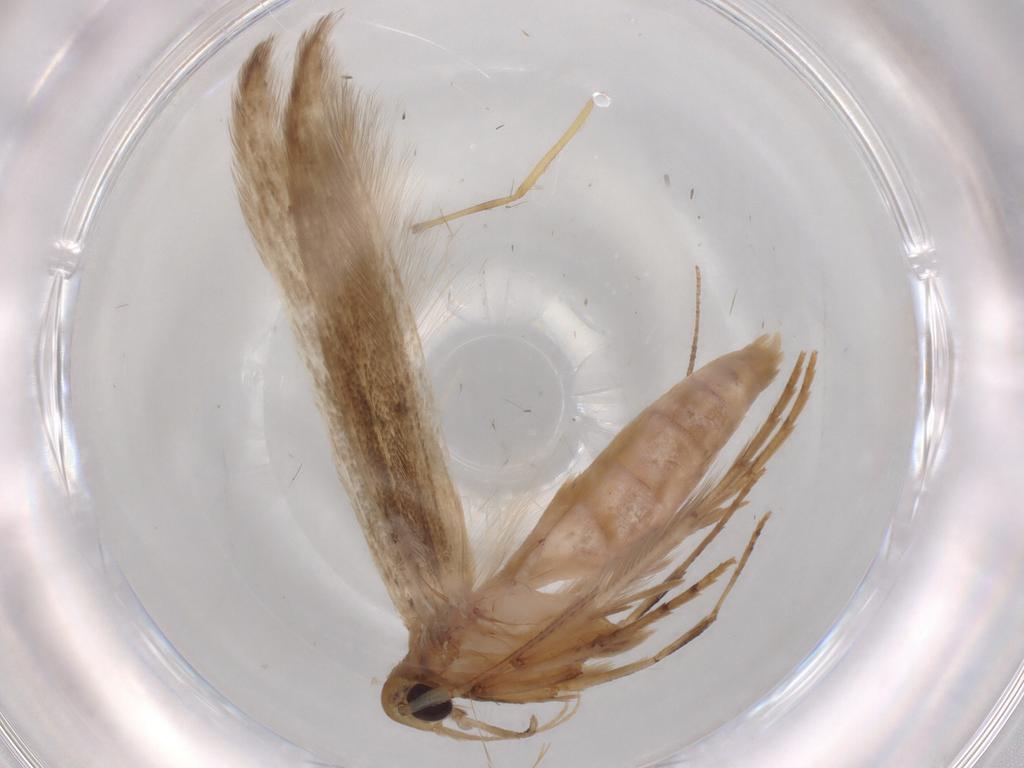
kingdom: Animalia
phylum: Arthropoda
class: Insecta
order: Lepidoptera
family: Heliodinidae
